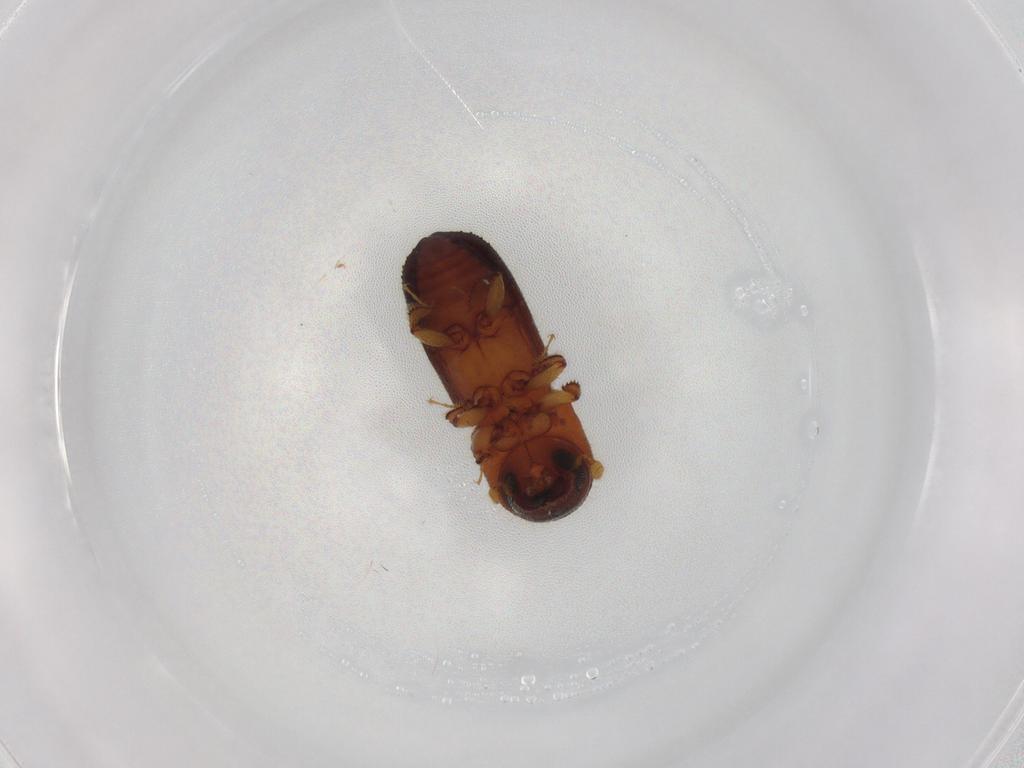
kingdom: Animalia
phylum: Arthropoda
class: Insecta
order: Coleoptera
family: Curculionidae
